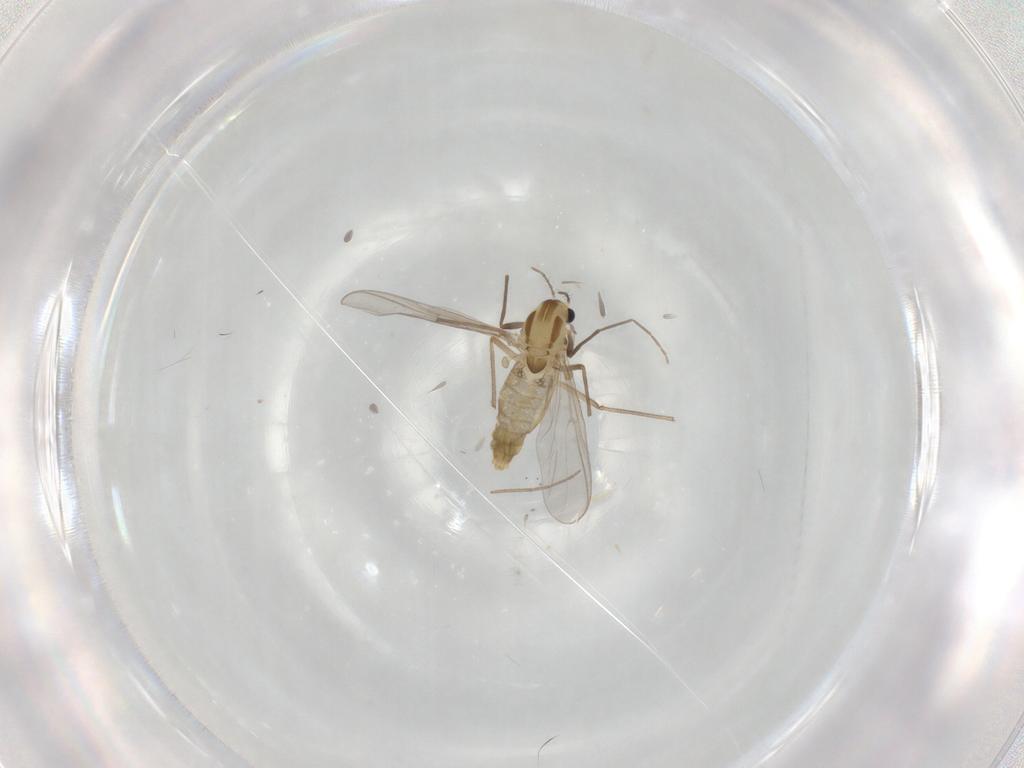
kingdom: Animalia
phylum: Arthropoda
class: Insecta
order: Diptera
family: Chironomidae
